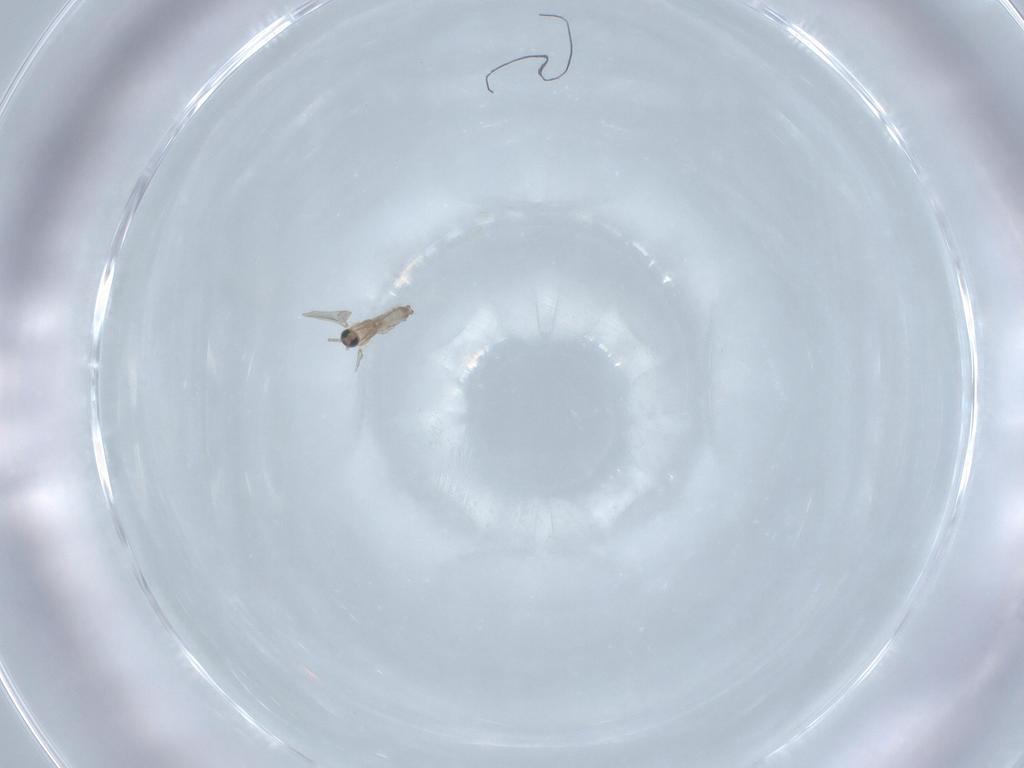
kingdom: Animalia
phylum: Arthropoda
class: Insecta
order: Diptera
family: Cecidomyiidae
